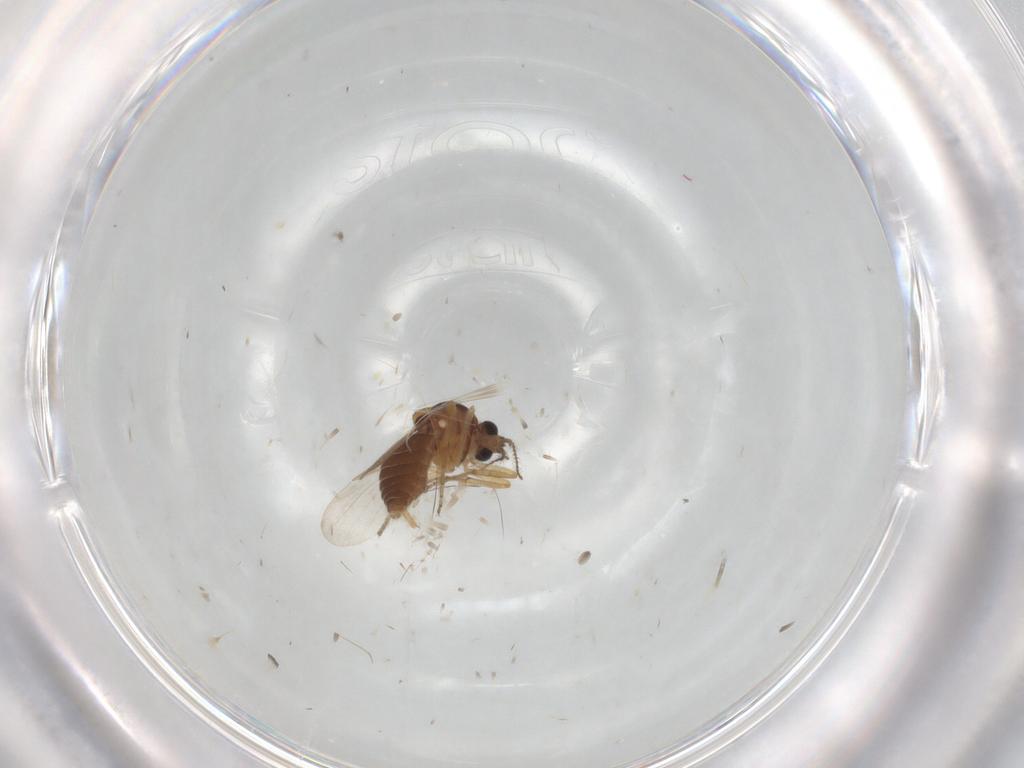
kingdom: Animalia
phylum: Arthropoda
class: Insecta
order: Diptera
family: Ceratopogonidae
